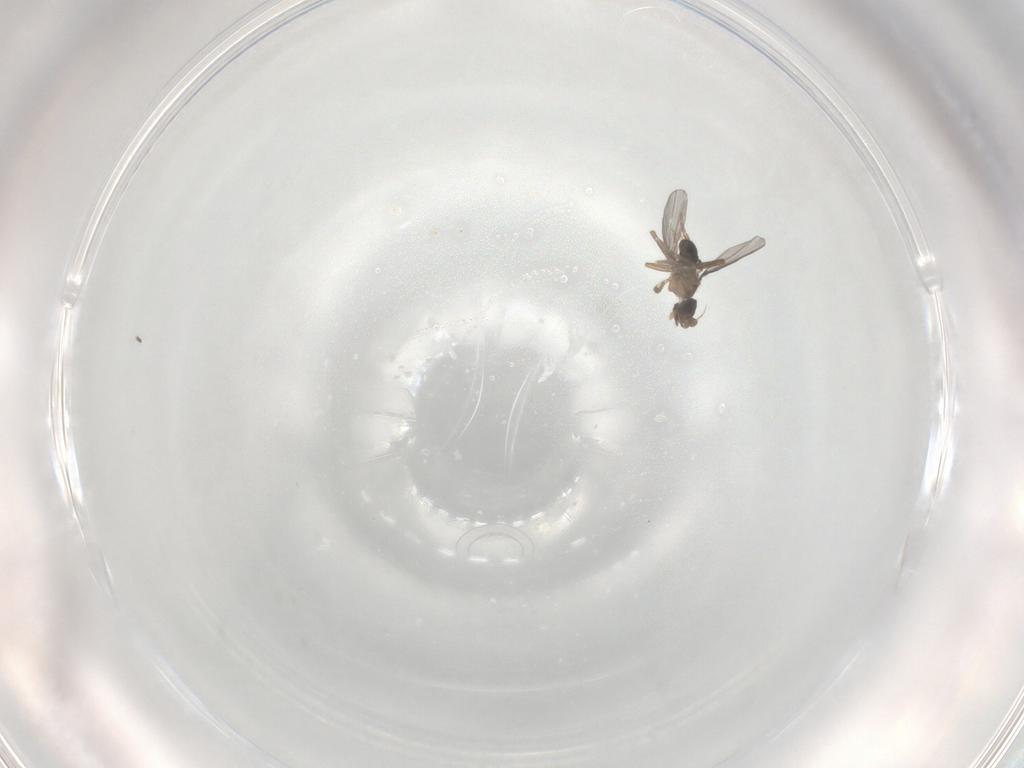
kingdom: Animalia
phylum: Arthropoda
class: Insecta
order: Diptera
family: Phoridae
